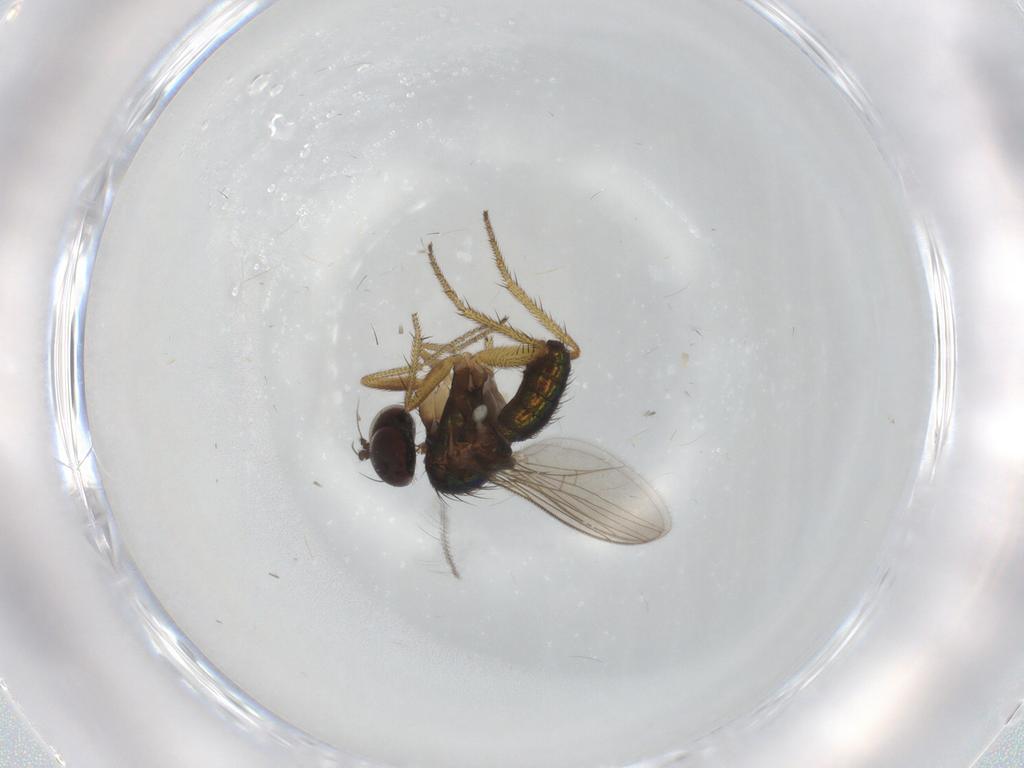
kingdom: Animalia
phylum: Arthropoda
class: Insecta
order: Diptera
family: Dolichopodidae
